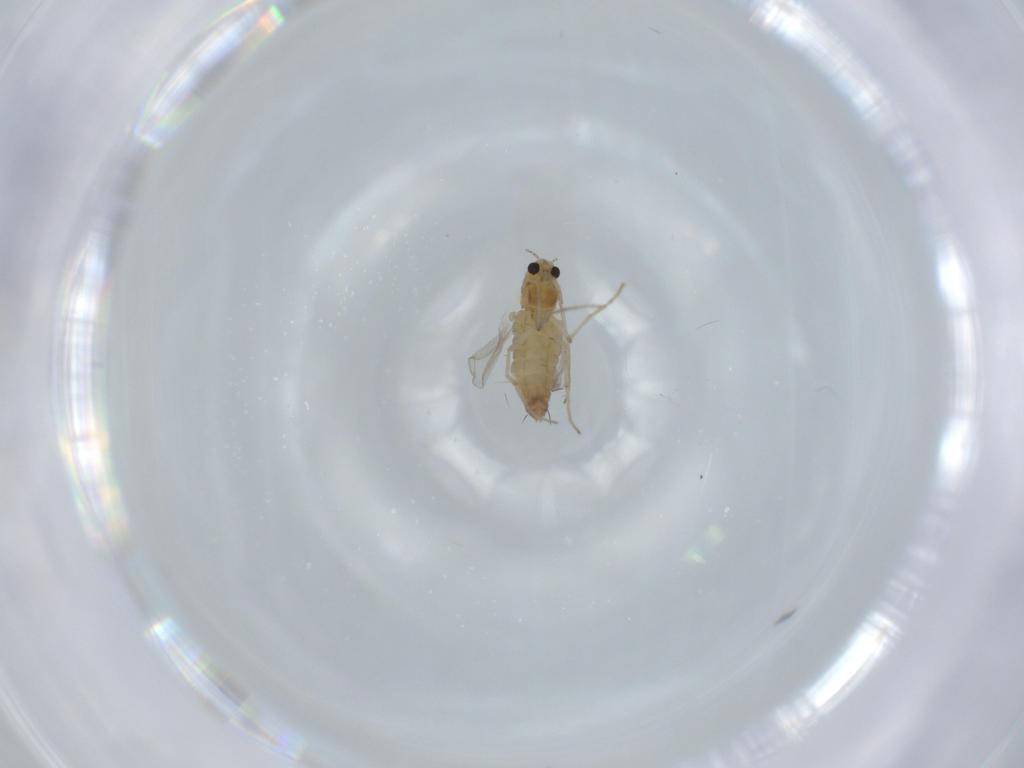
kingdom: Animalia
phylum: Arthropoda
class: Insecta
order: Diptera
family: Chironomidae
